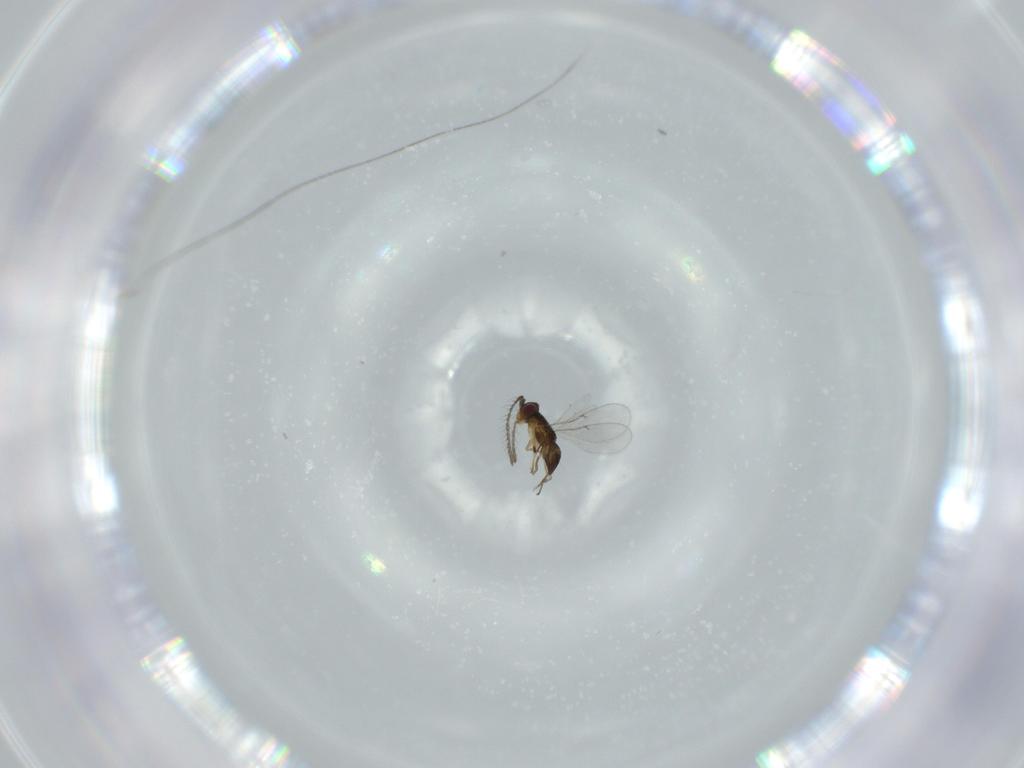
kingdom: Animalia
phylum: Arthropoda
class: Insecta
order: Hymenoptera
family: Scelionidae
